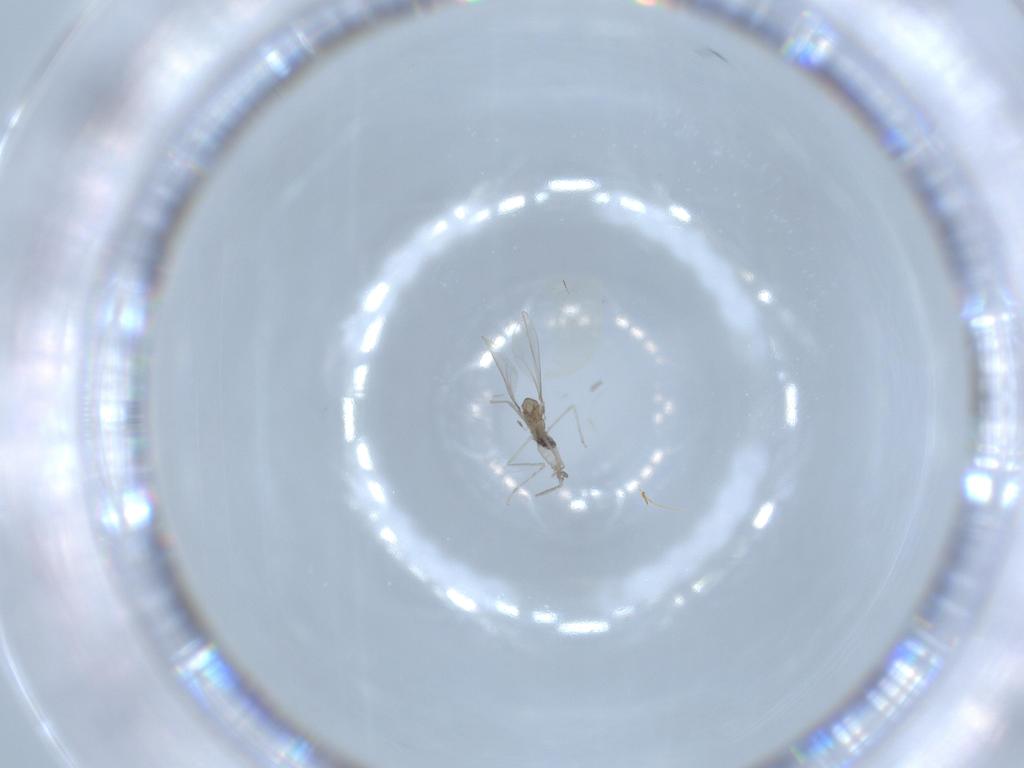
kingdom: Animalia
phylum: Arthropoda
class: Insecta
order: Diptera
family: Cecidomyiidae
